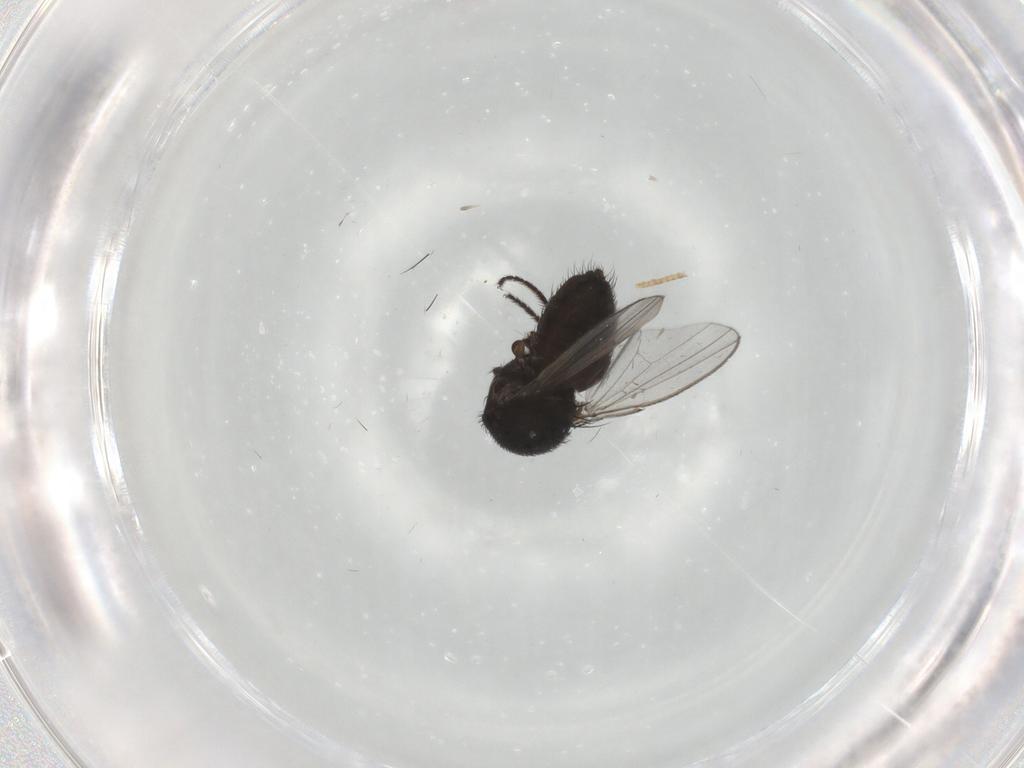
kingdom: Animalia
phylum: Arthropoda
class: Insecta
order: Diptera
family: Milichiidae
